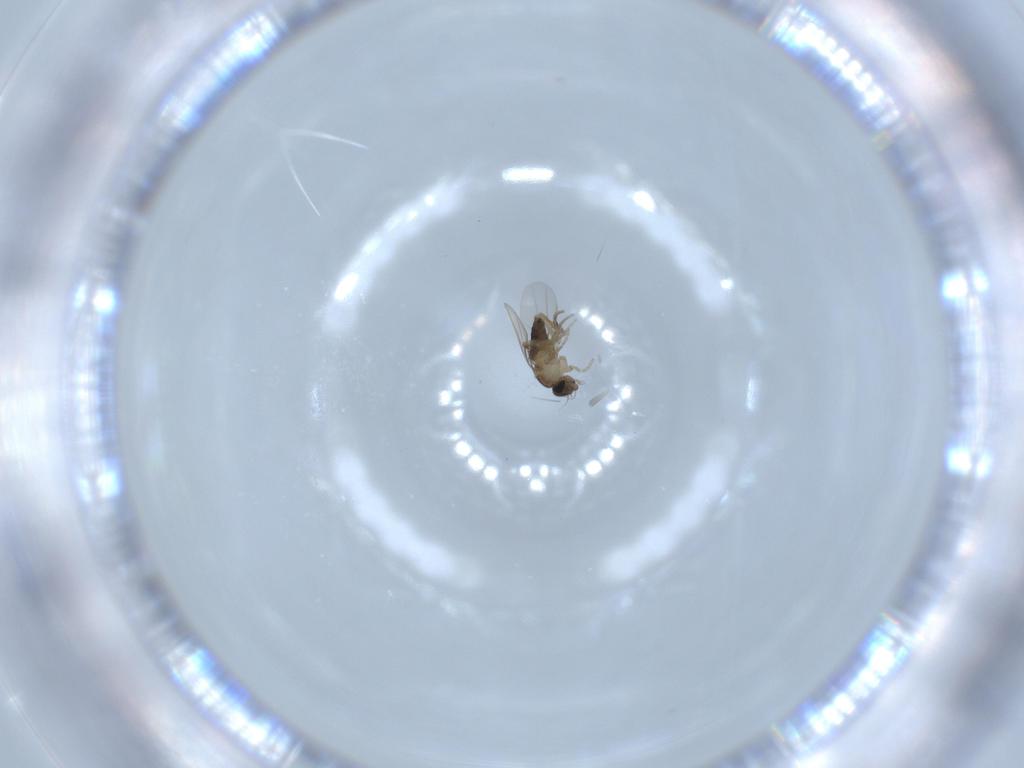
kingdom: Animalia
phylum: Arthropoda
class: Insecta
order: Diptera
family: Phoridae
